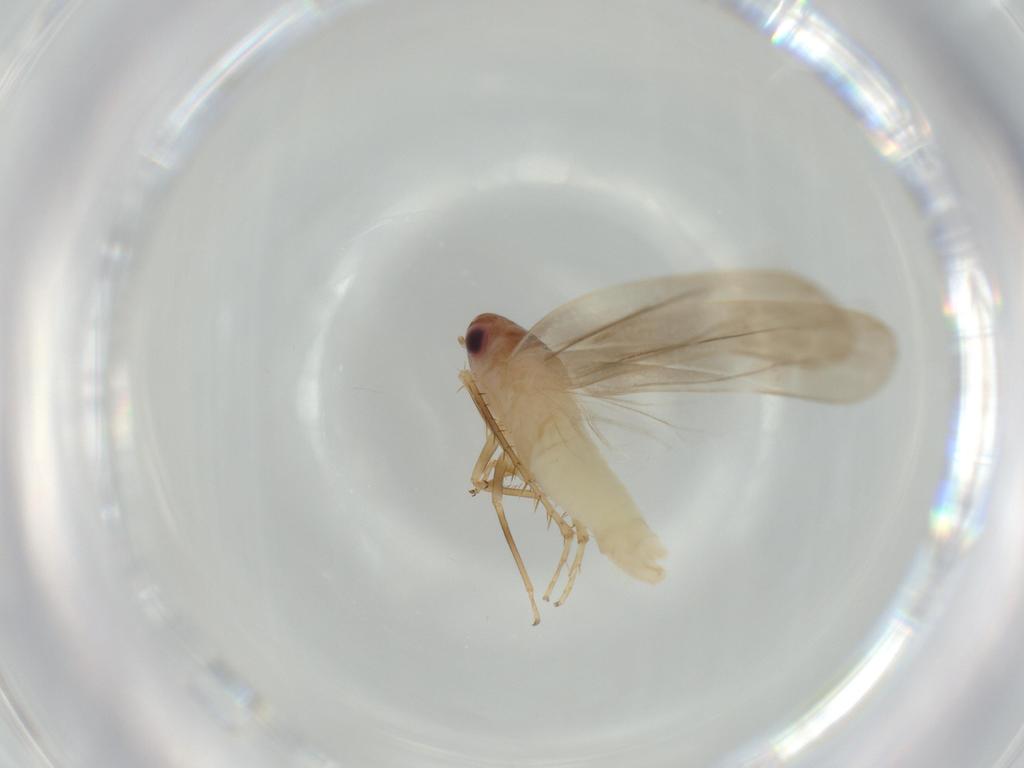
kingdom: Animalia
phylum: Arthropoda
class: Insecta
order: Hemiptera
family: Cicadellidae
